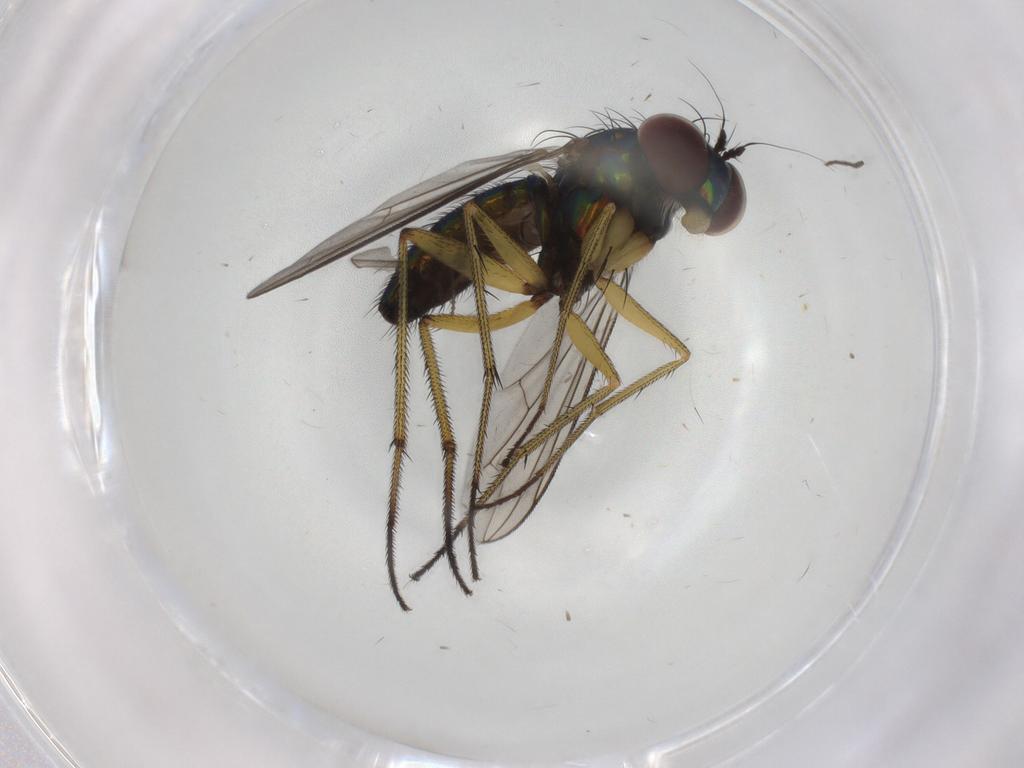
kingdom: Animalia
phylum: Arthropoda
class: Insecta
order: Diptera
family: Dolichopodidae
